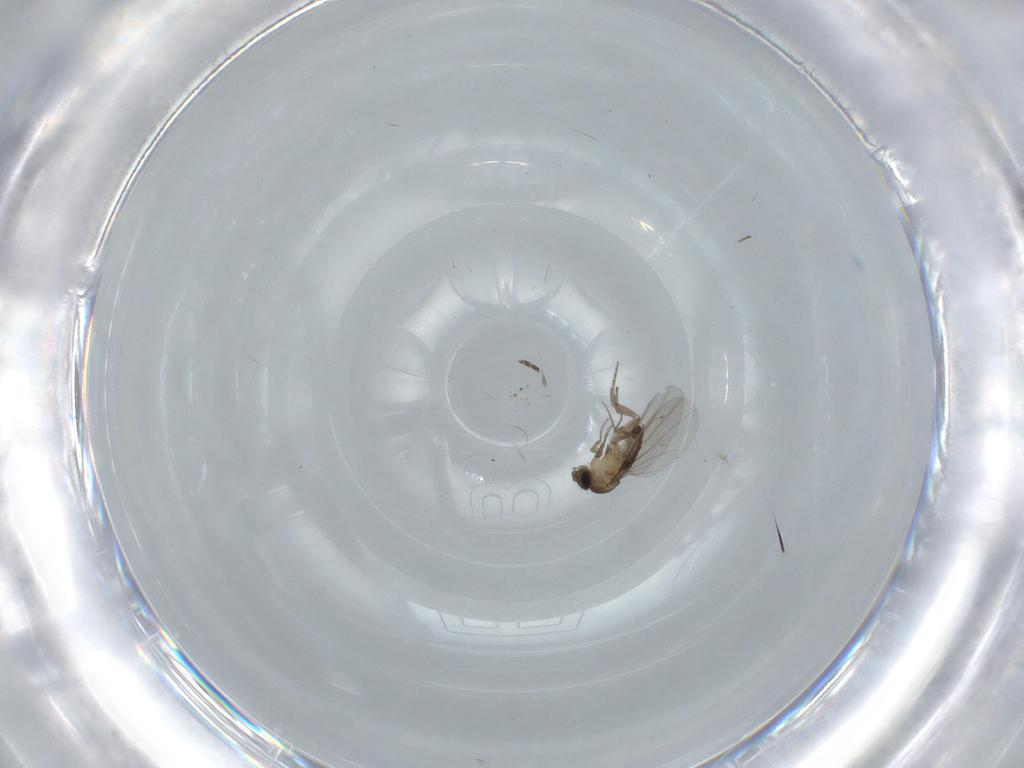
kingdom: Animalia
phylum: Arthropoda
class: Insecta
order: Diptera
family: Phoridae
